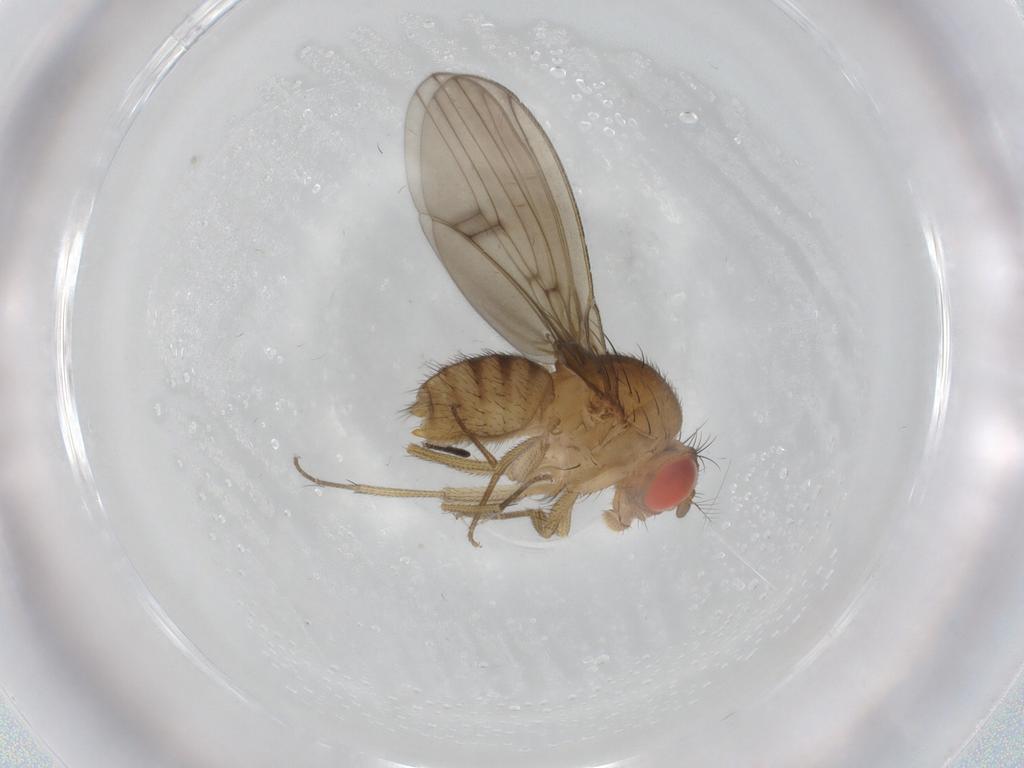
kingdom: Animalia
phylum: Arthropoda
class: Insecta
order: Diptera
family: Drosophilidae
